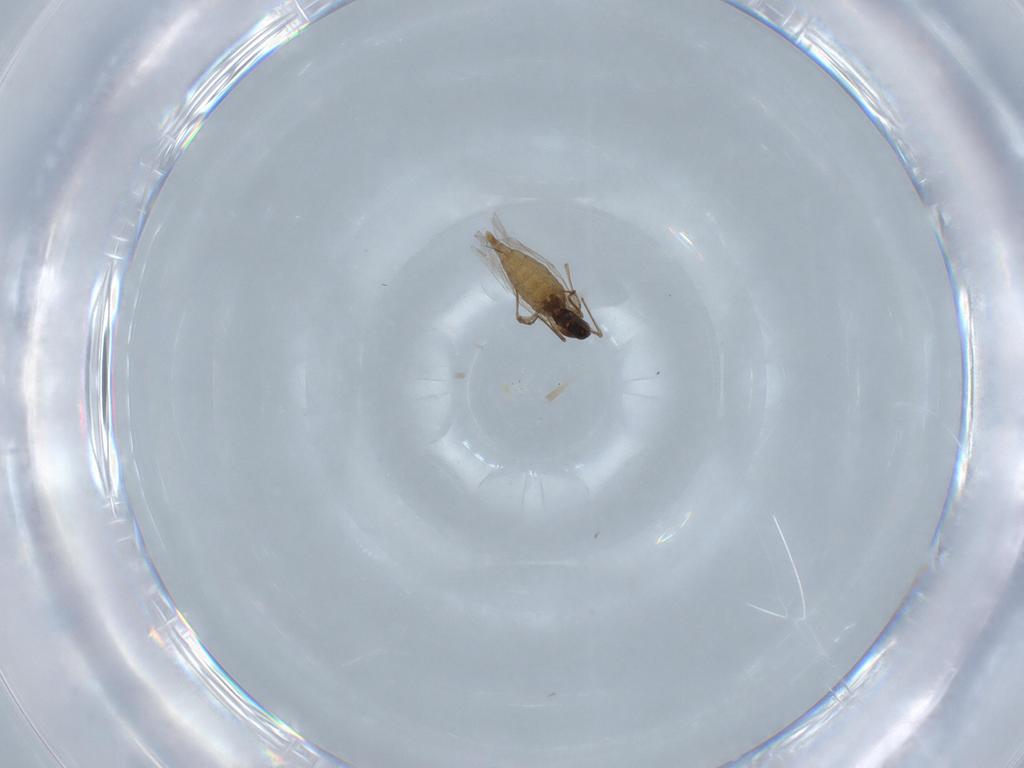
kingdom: Animalia
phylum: Arthropoda
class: Insecta
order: Diptera
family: Cecidomyiidae
